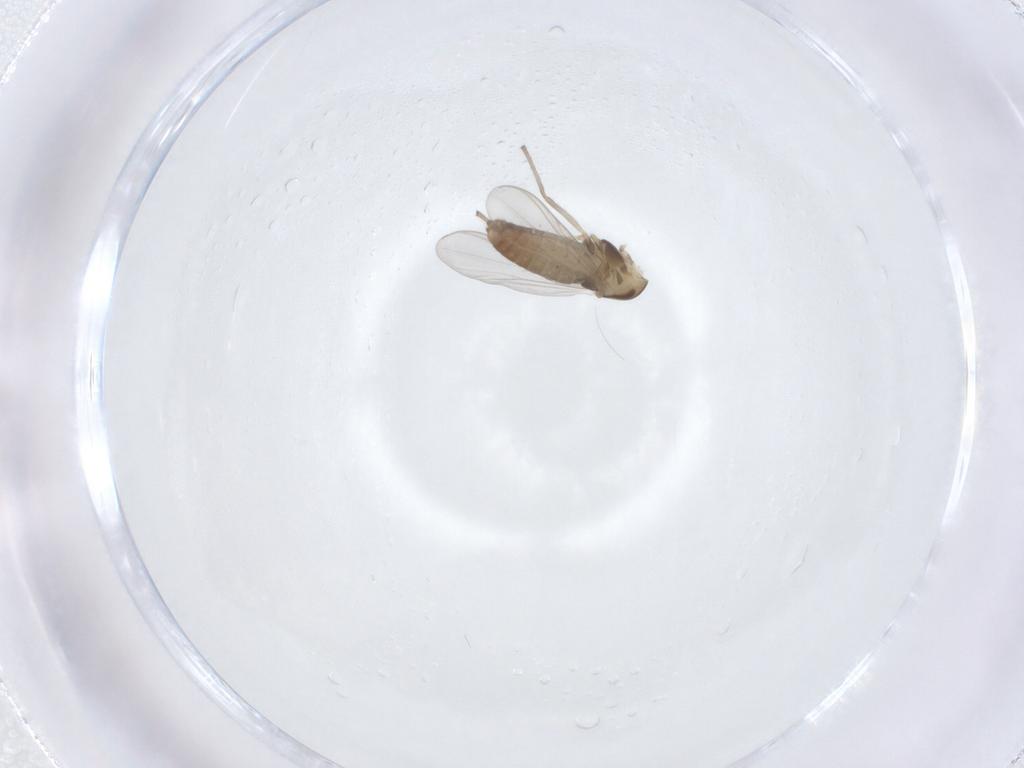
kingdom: Animalia
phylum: Arthropoda
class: Insecta
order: Diptera
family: Chironomidae
